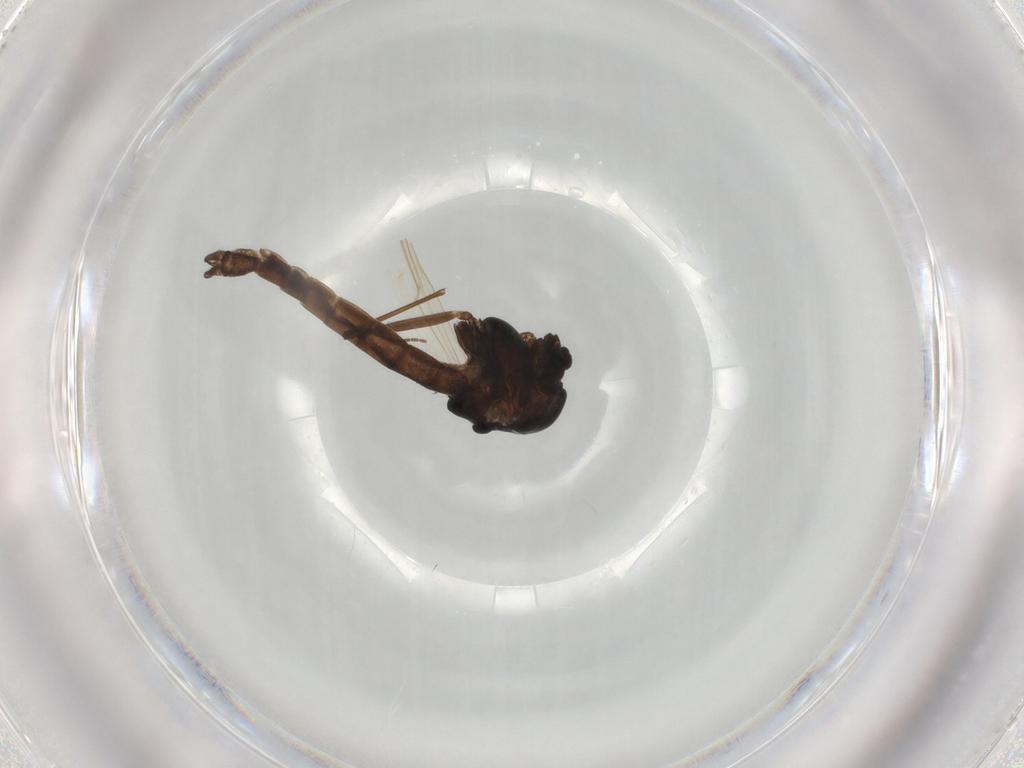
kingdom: Animalia
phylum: Arthropoda
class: Insecta
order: Diptera
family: Chironomidae
